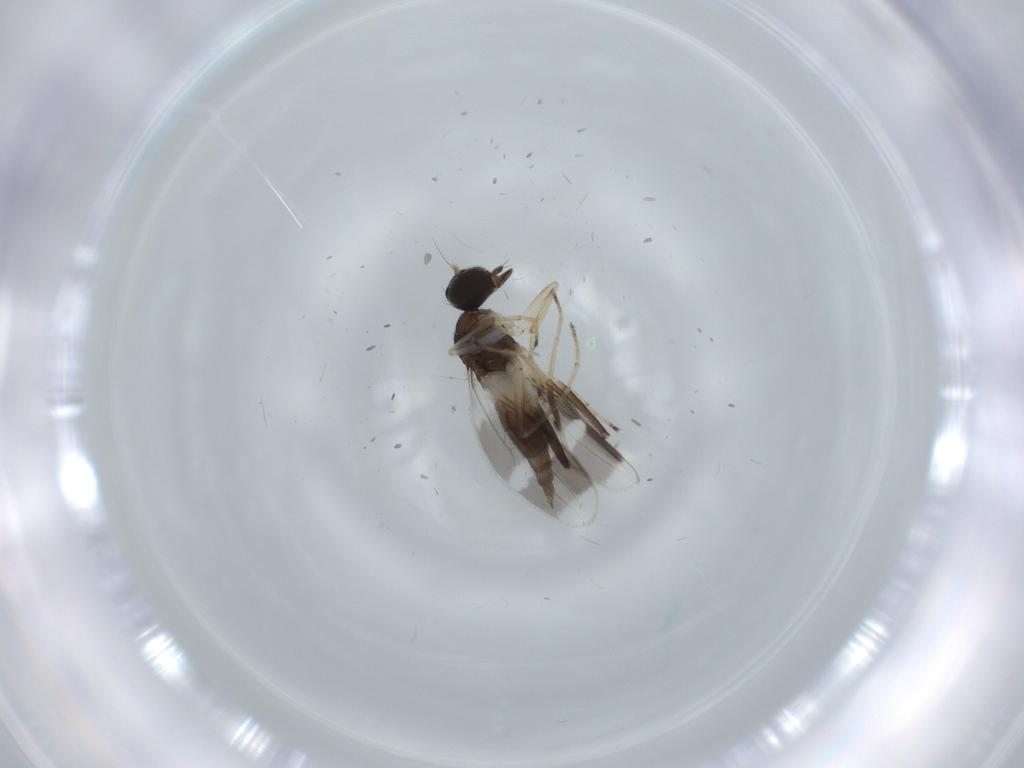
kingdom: Animalia
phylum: Arthropoda
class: Insecta
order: Diptera
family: Hybotidae
